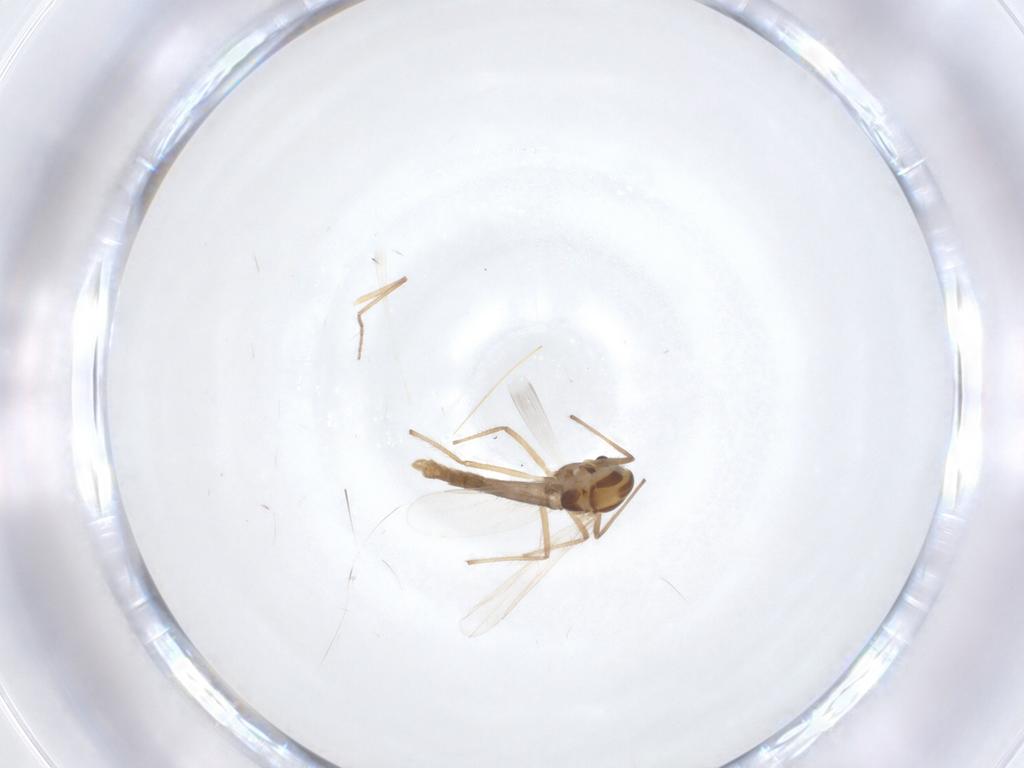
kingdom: Animalia
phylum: Arthropoda
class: Insecta
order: Diptera
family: Chironomidae
